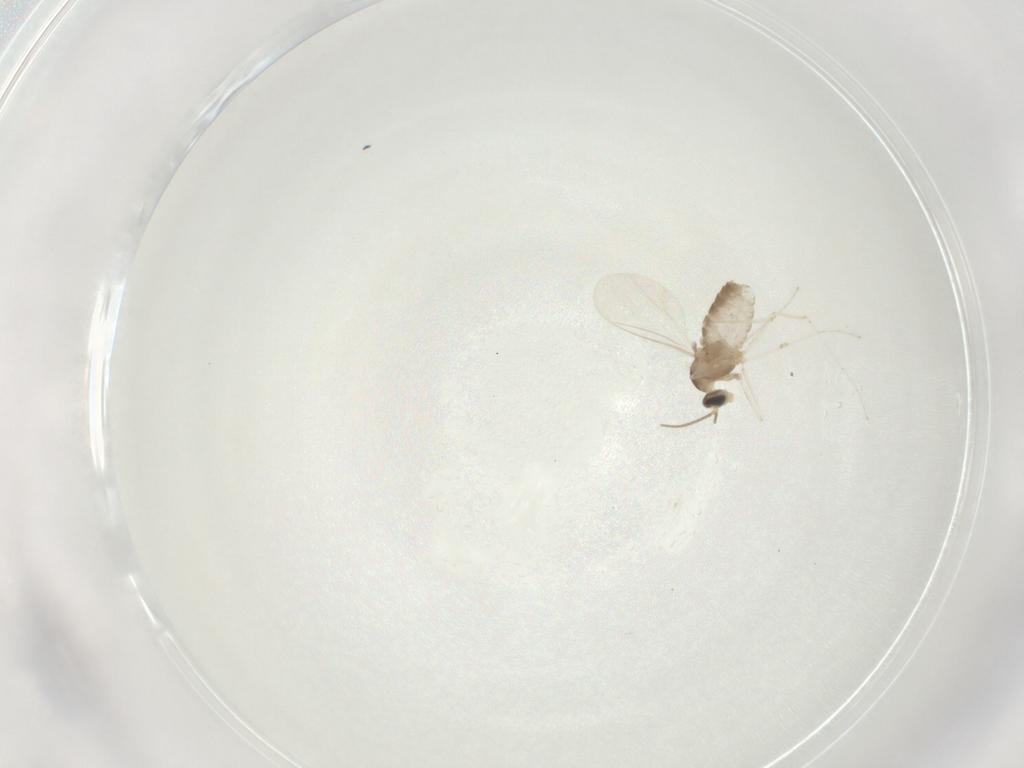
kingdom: Animalia
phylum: Arthropoda
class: Insecta
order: Diptera
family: Cecidomyiidae
